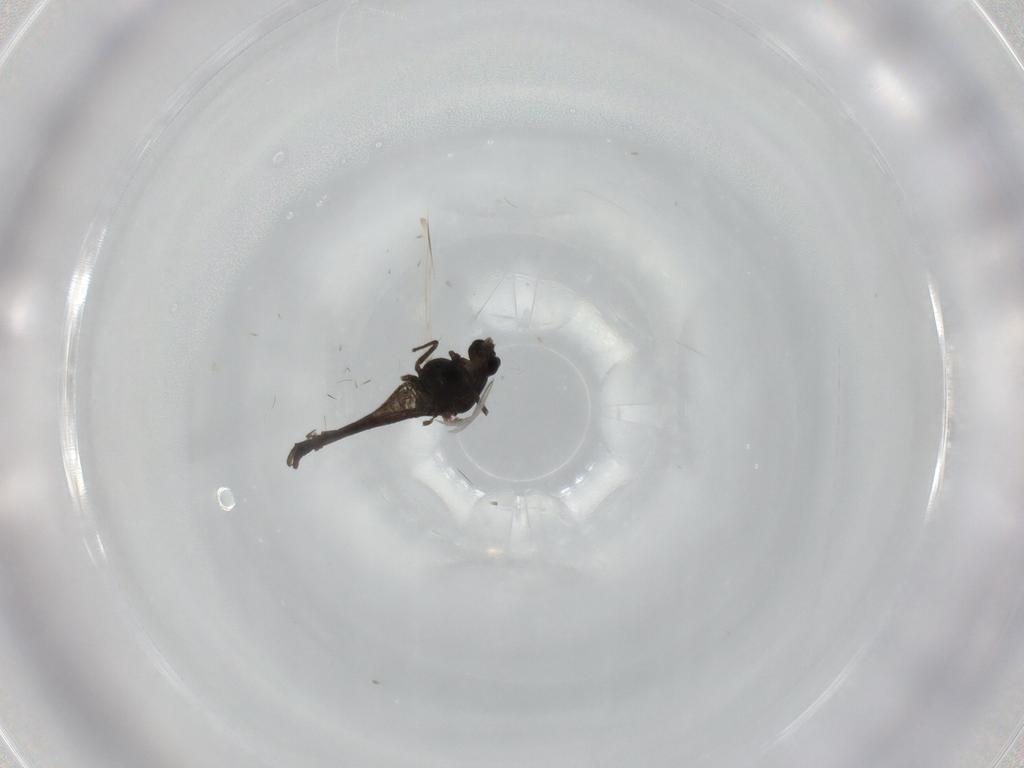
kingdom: Animalia
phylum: Arthropoda
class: Insecta
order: Diptera
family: Chironomidae
